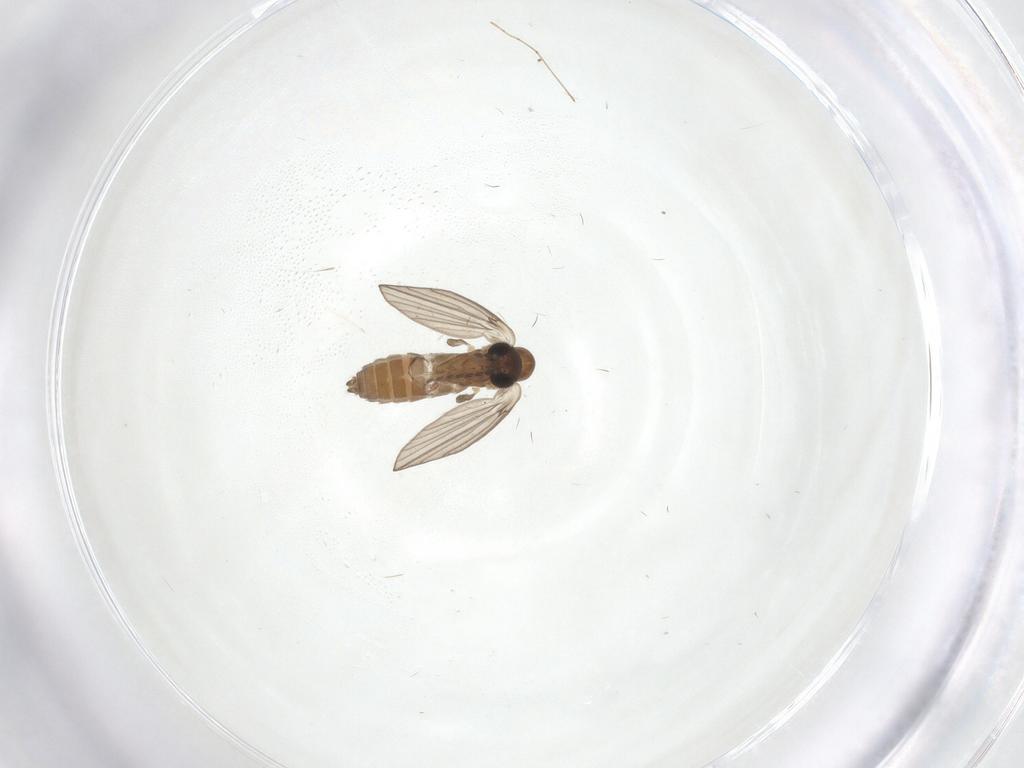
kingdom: Animalia
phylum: Arthropoda
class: Insecta
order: Diptera
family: Psychodidae
